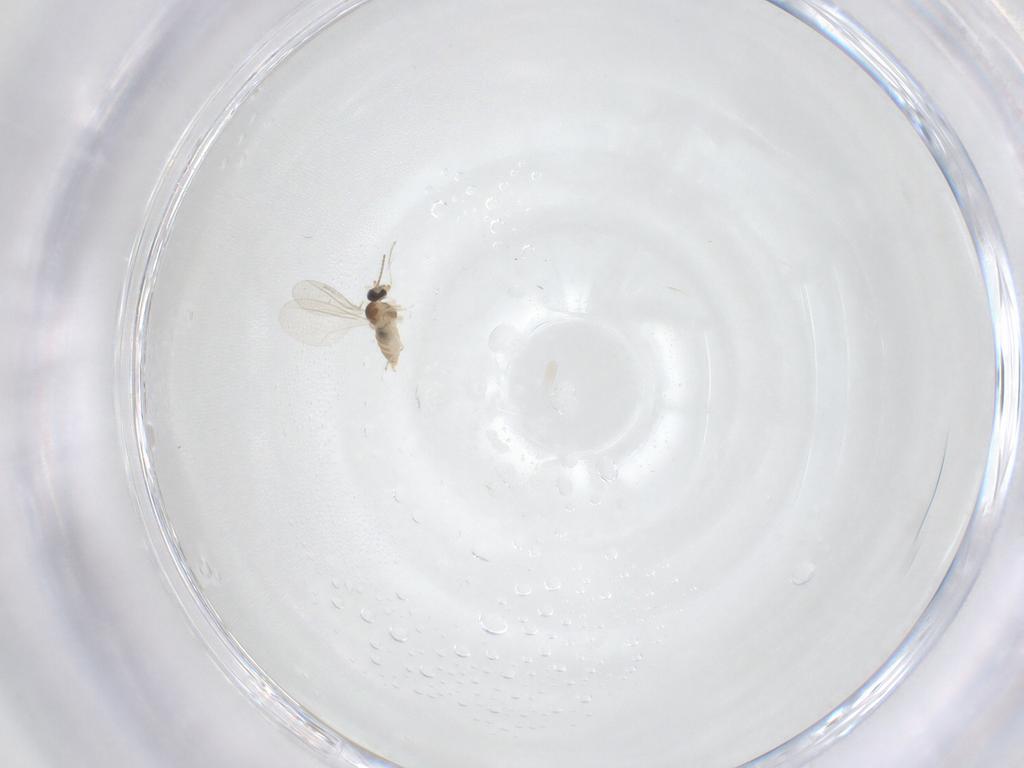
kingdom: Animalia
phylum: Arthropoda
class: Insecta
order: Diptera
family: Cecidomyiidae
